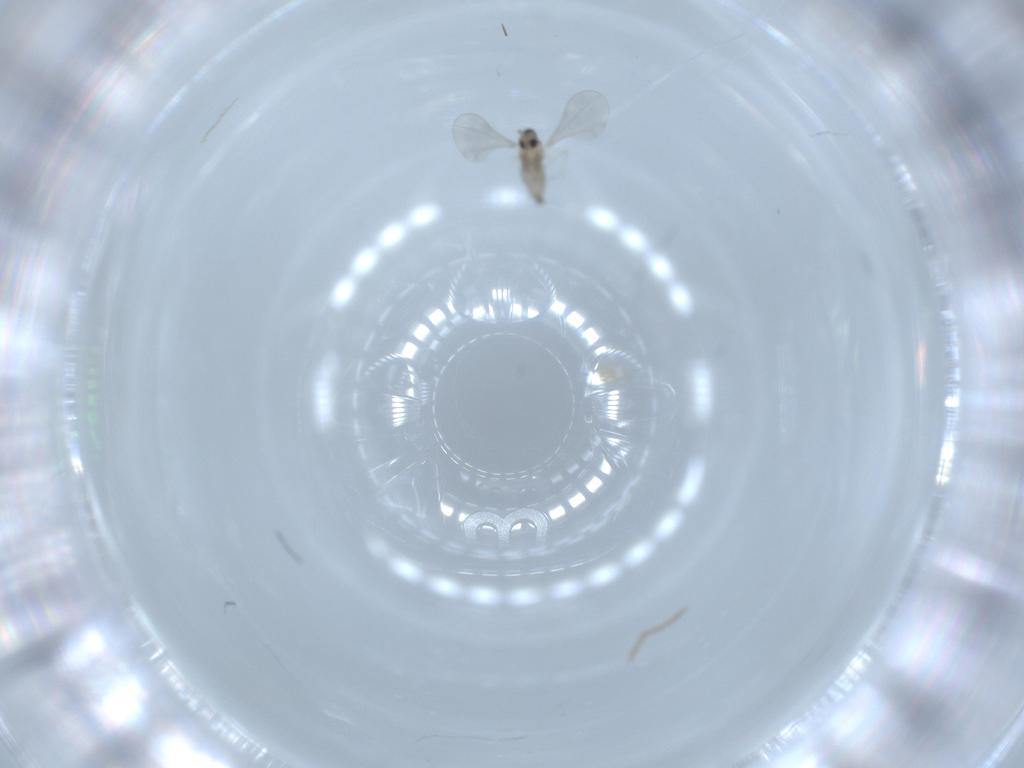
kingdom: Animalia
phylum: Arthropoda
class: Insecta
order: Diptera
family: Cecidomyiidae
